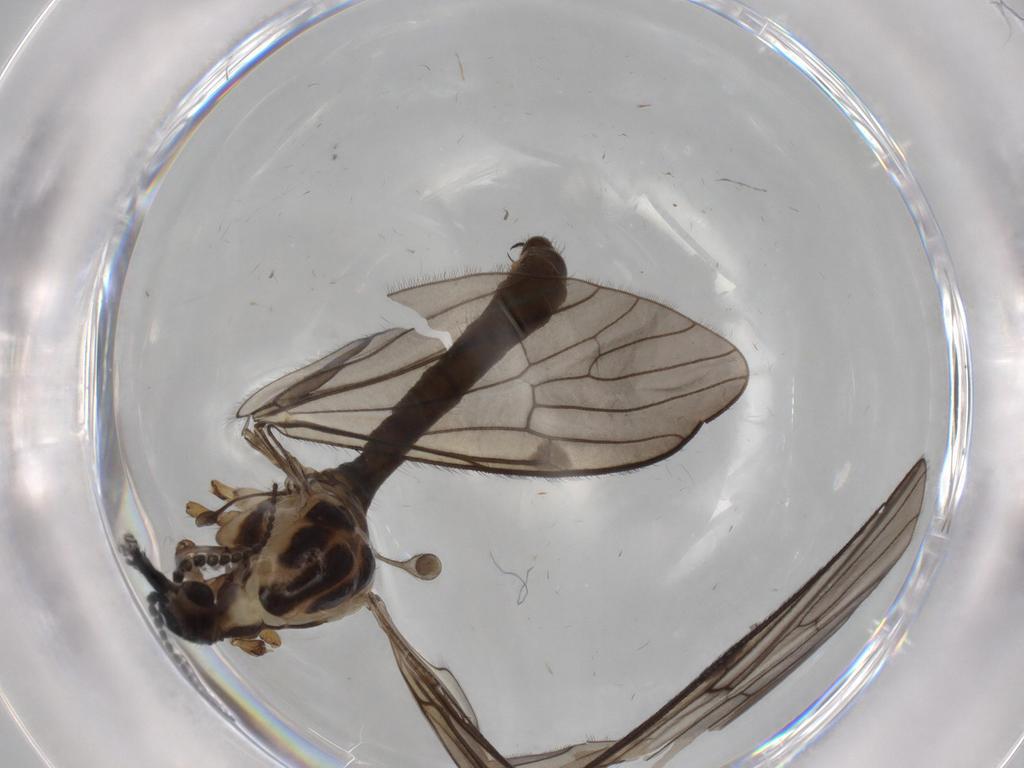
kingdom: Animalia
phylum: Arthropoda
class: Insecta
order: Diptera
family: Limoniidae
